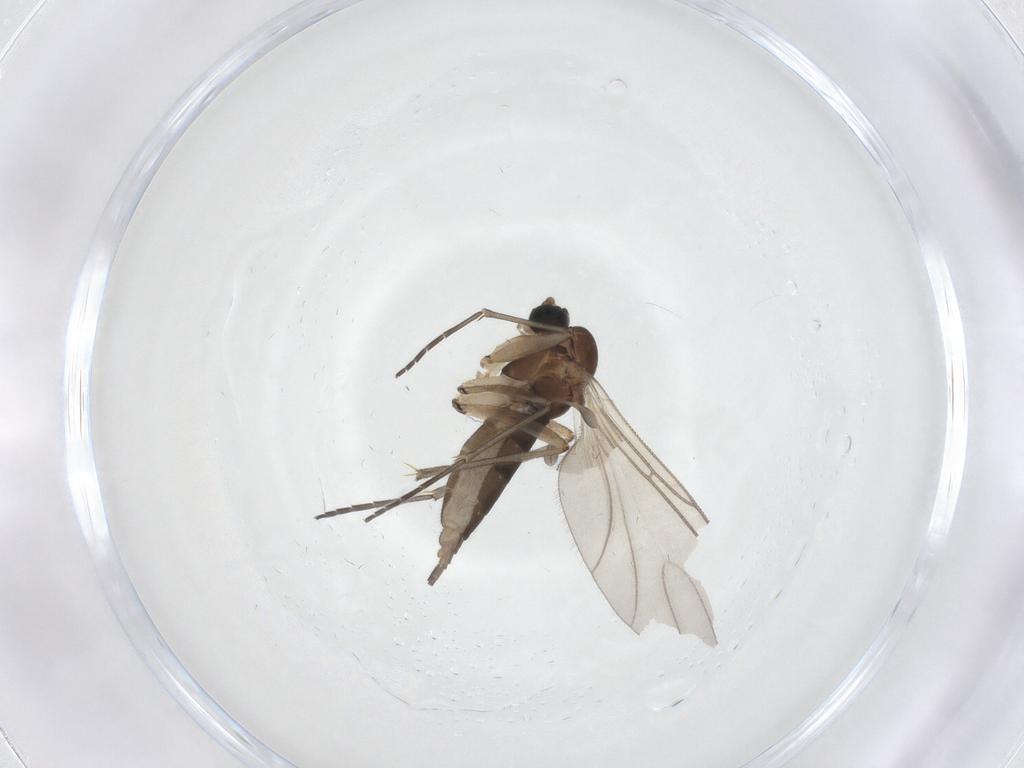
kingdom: Animalia
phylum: Arthropoda
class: Insecta
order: Diptera
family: Sciaridae
